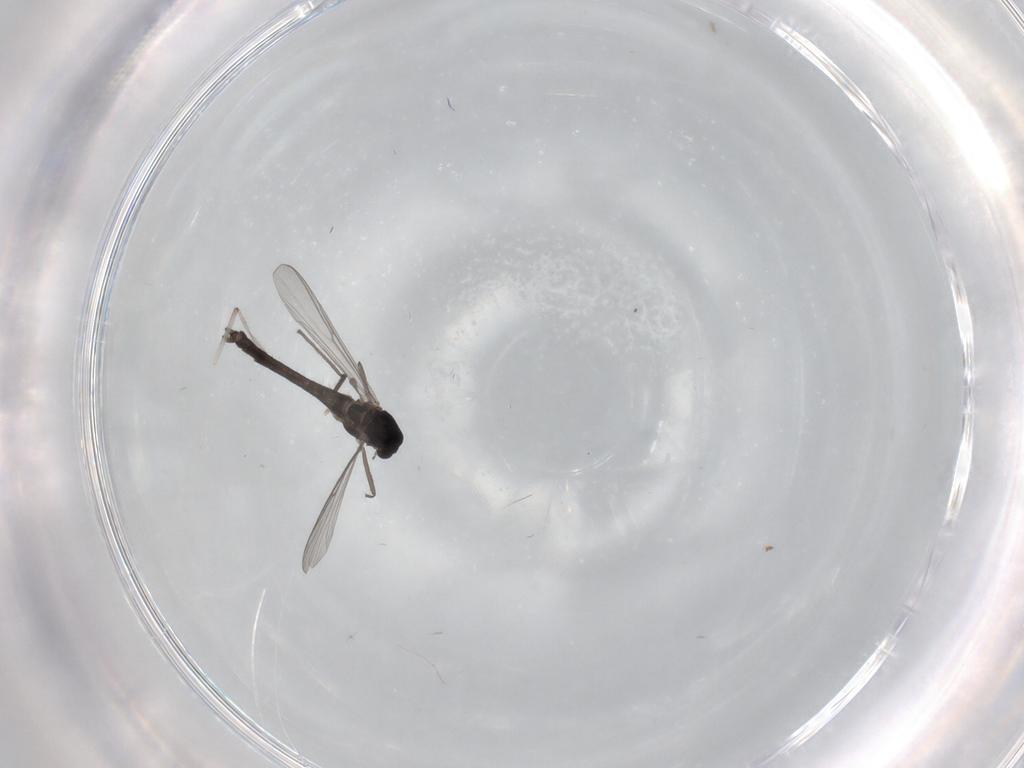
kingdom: Animalia
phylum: Arthropoda
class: Insecta
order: Diptera
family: Chironomidae
